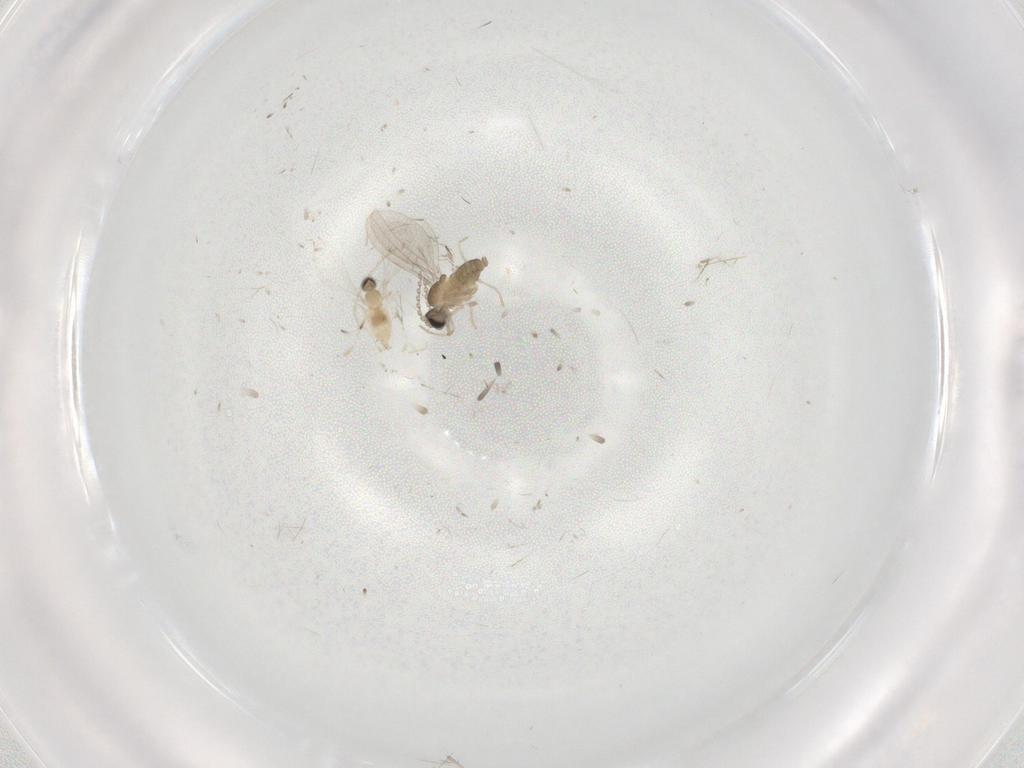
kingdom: Animalia
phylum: Arthropoda
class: Insecta
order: Diptera
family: Cecidomyiidae
